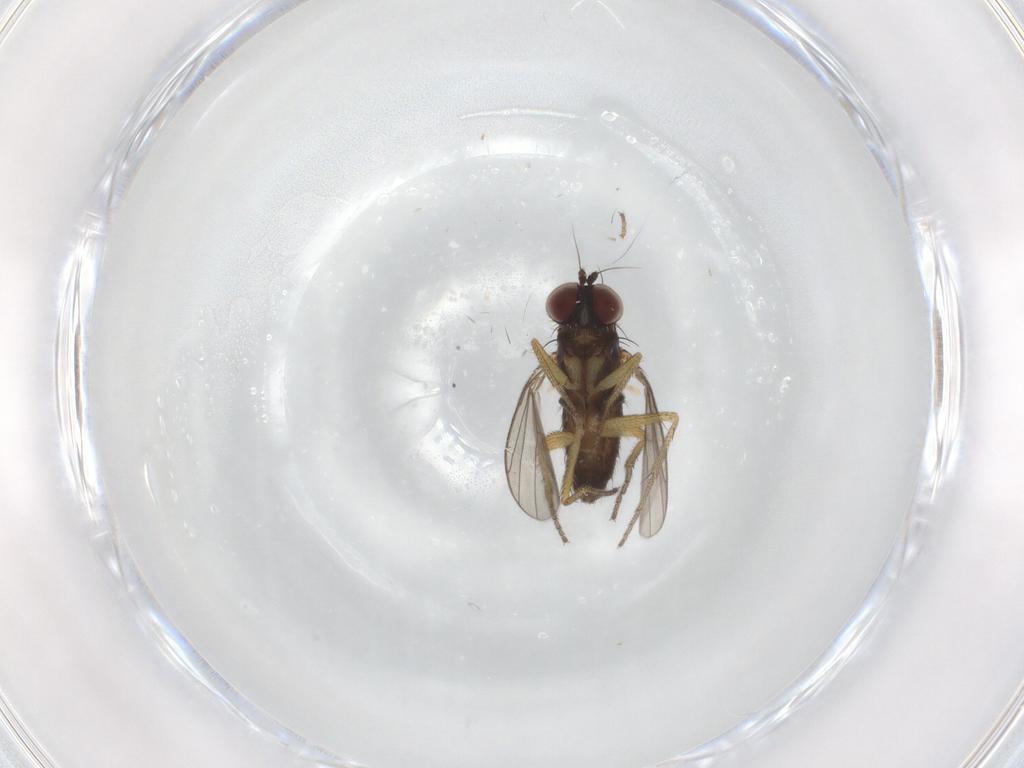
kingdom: Animalia
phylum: Arthropoda
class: Insecta
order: Diptera
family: Dolichopodidae
